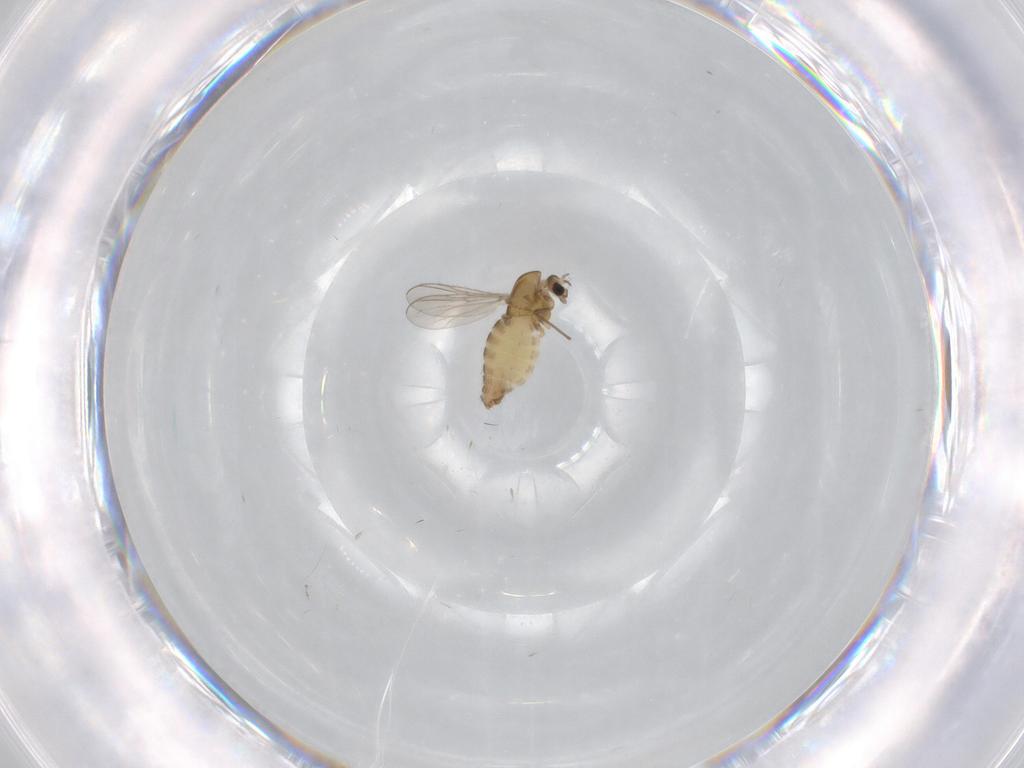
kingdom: Animalia
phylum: Arthropoda
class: Insecta
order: Diptera
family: Chironomidae
